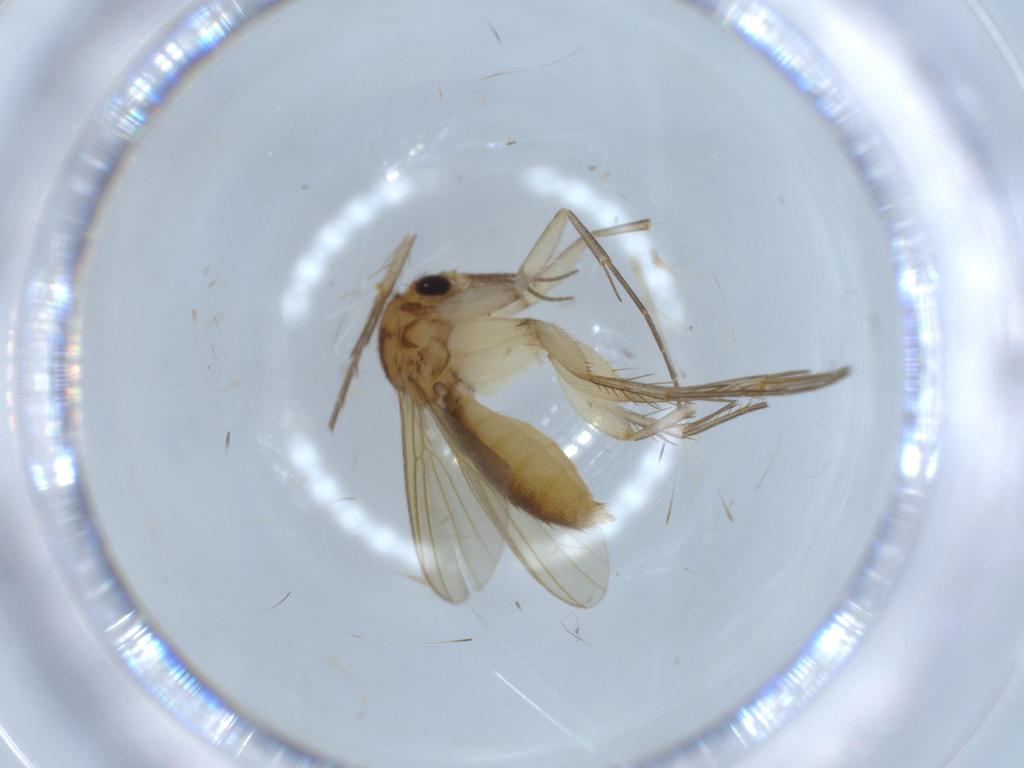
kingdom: Animalia
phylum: Arthropoda
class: Insecta
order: Diptera
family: Mycetophilidae
